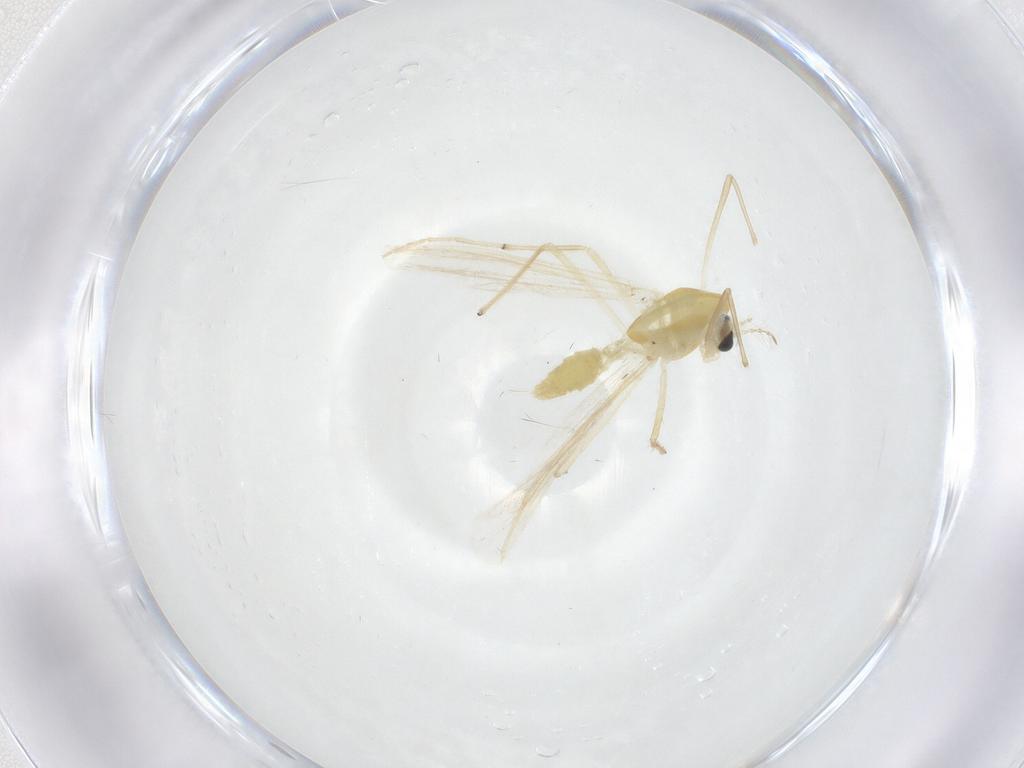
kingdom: Animalia
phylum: Arthropoda
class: Insecta
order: Diptera
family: Chironomidae
